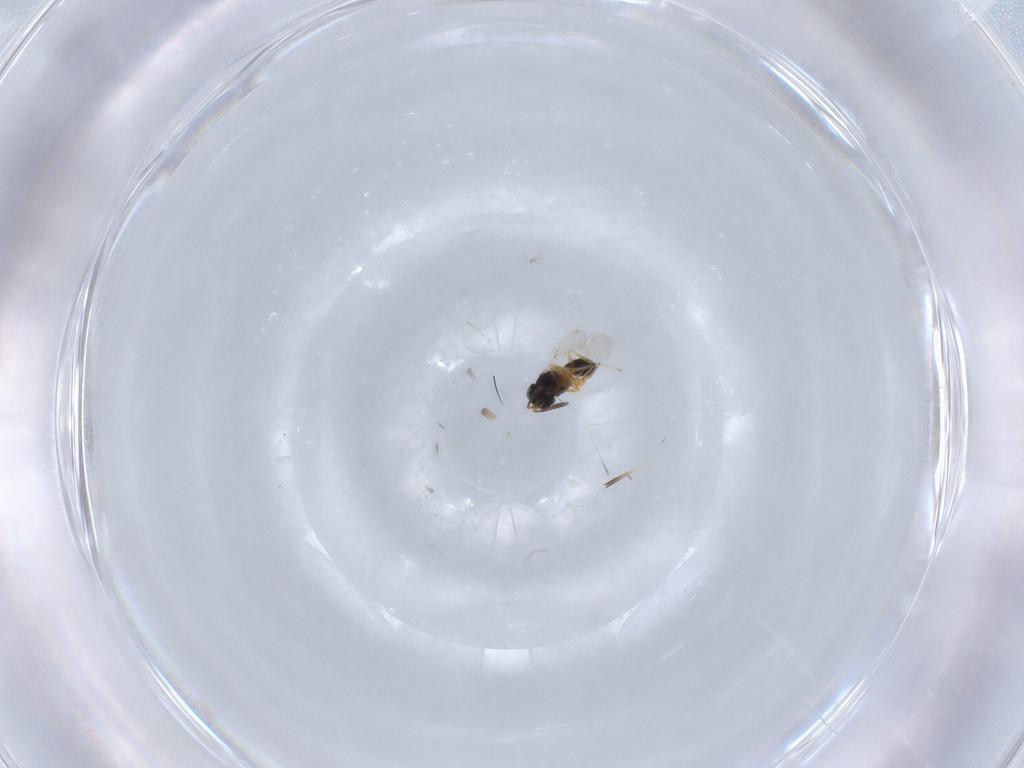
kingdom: Animalia
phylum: Arthropoda
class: Insecta
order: Hymenoptera
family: Scelionidae
